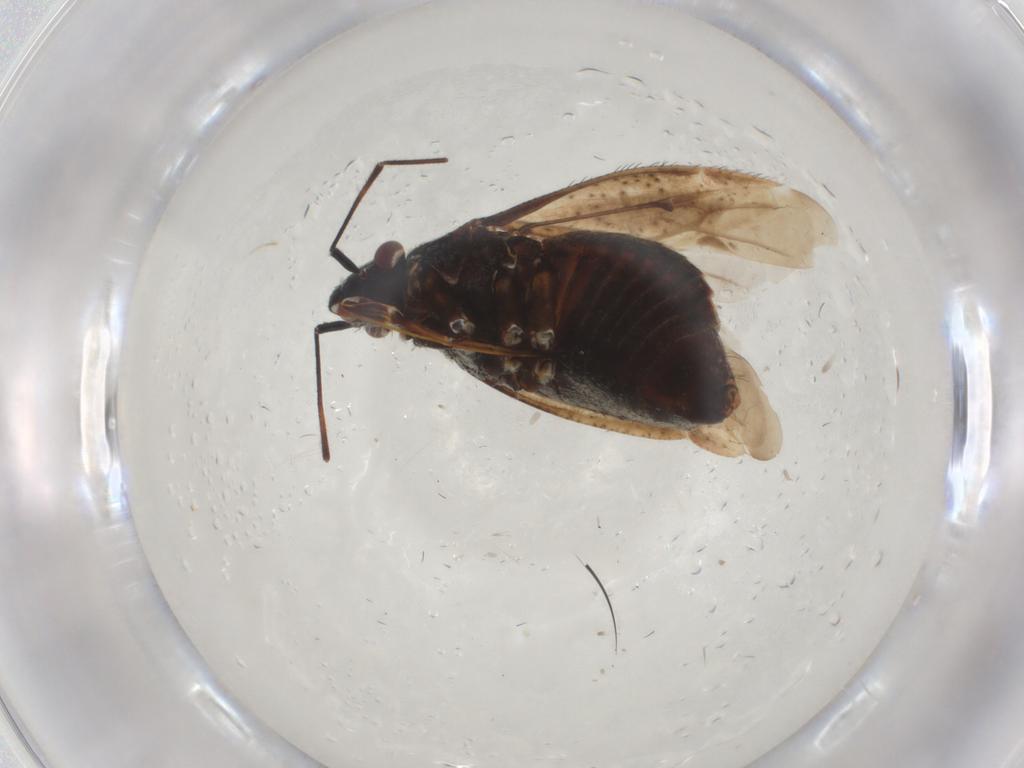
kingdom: Animalia
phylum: Arthropoda
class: Insecta
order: Hemiptera
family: Miridae
